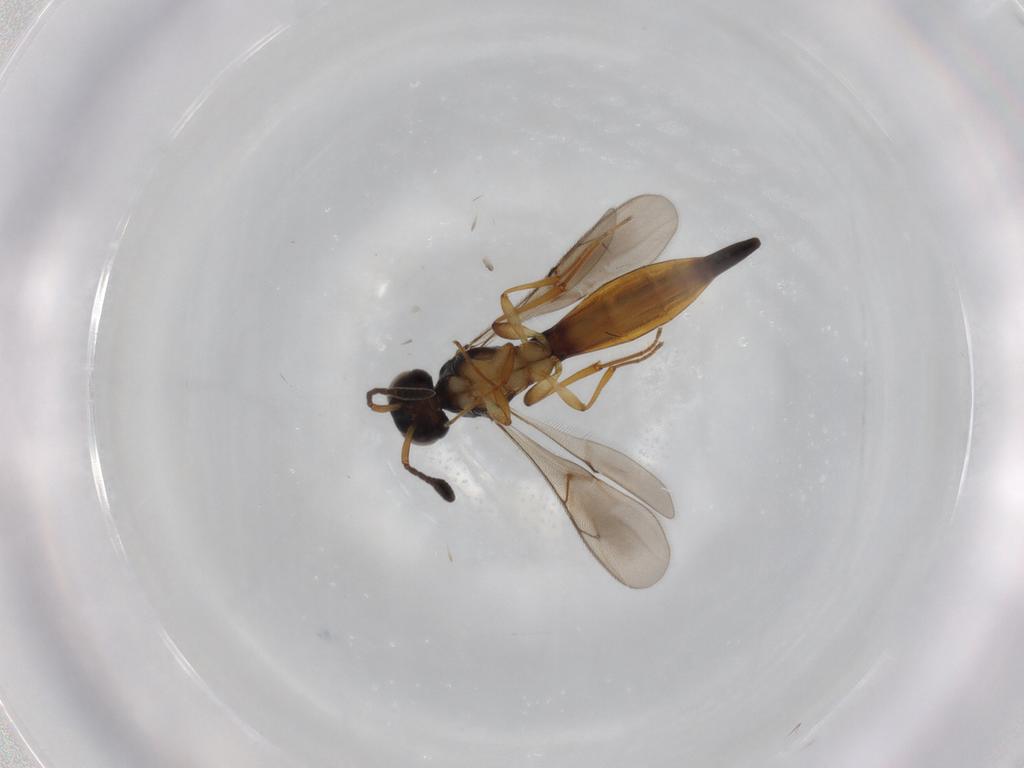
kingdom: Animalia
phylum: Arthropoda
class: Insecta
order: Hymenoptera
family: Scelionidae
